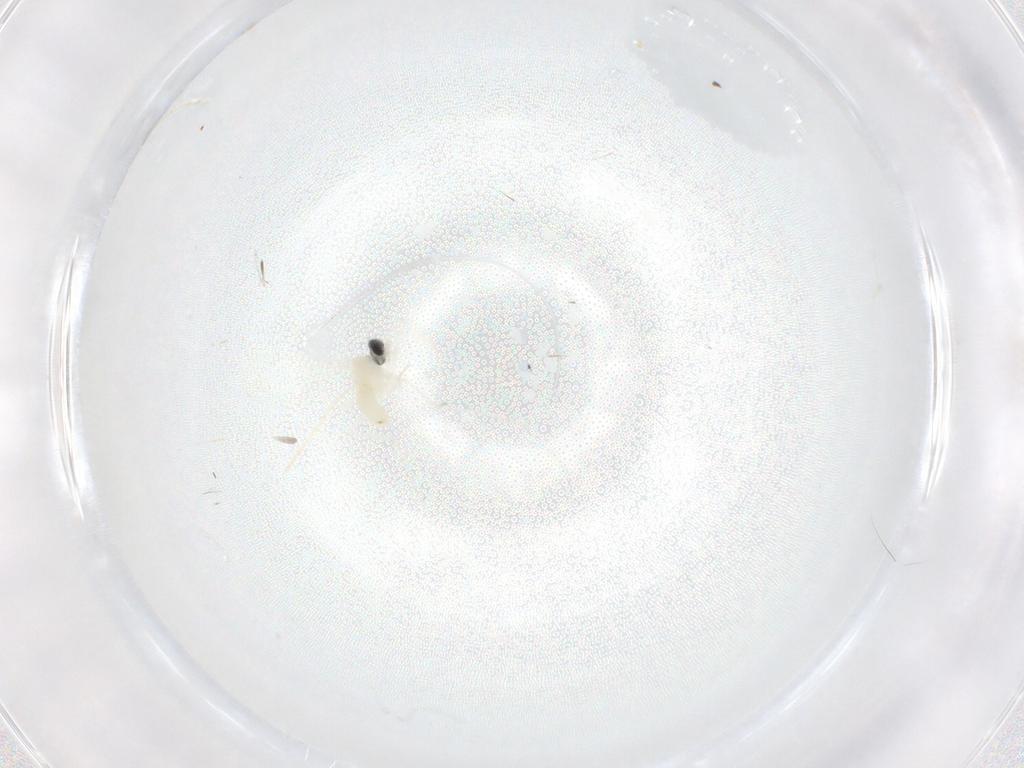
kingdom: Animalia
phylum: Arthropoda
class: Insecta
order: Diptera
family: Cecidomyiidae
